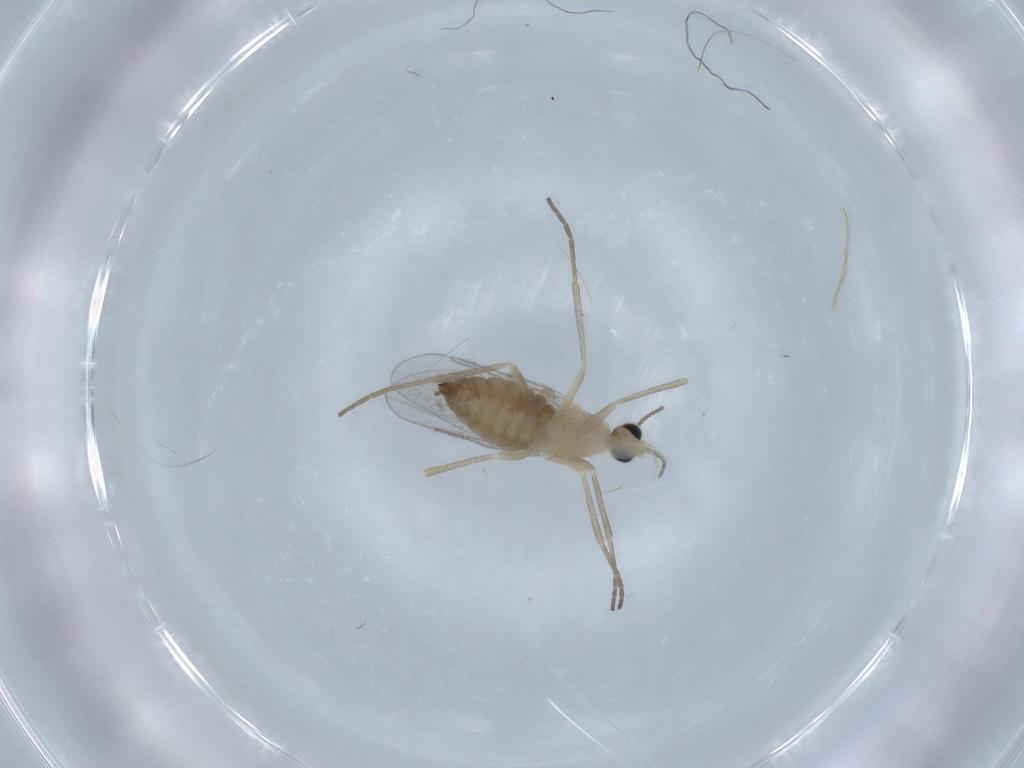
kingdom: Animalia
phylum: Arthropoda
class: Insecta
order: Diptera
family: Cecidomyiidae
